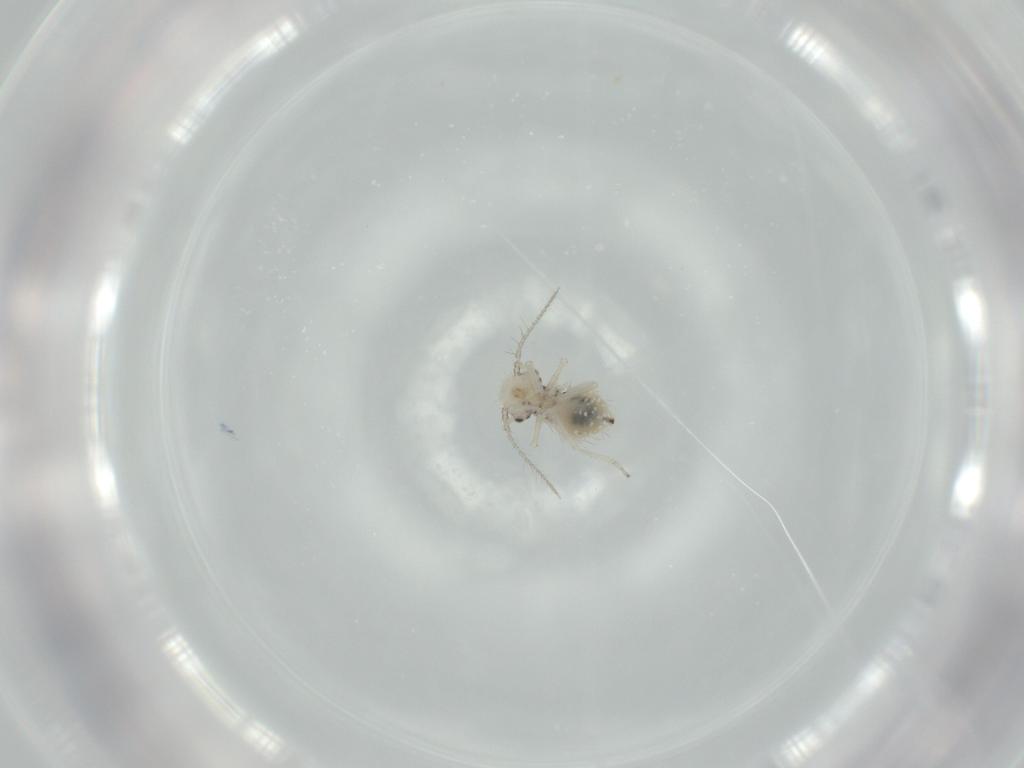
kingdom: Animalia
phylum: Arthropoda
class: Insecta
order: Psocodea
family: Pseudocaeciliidae
